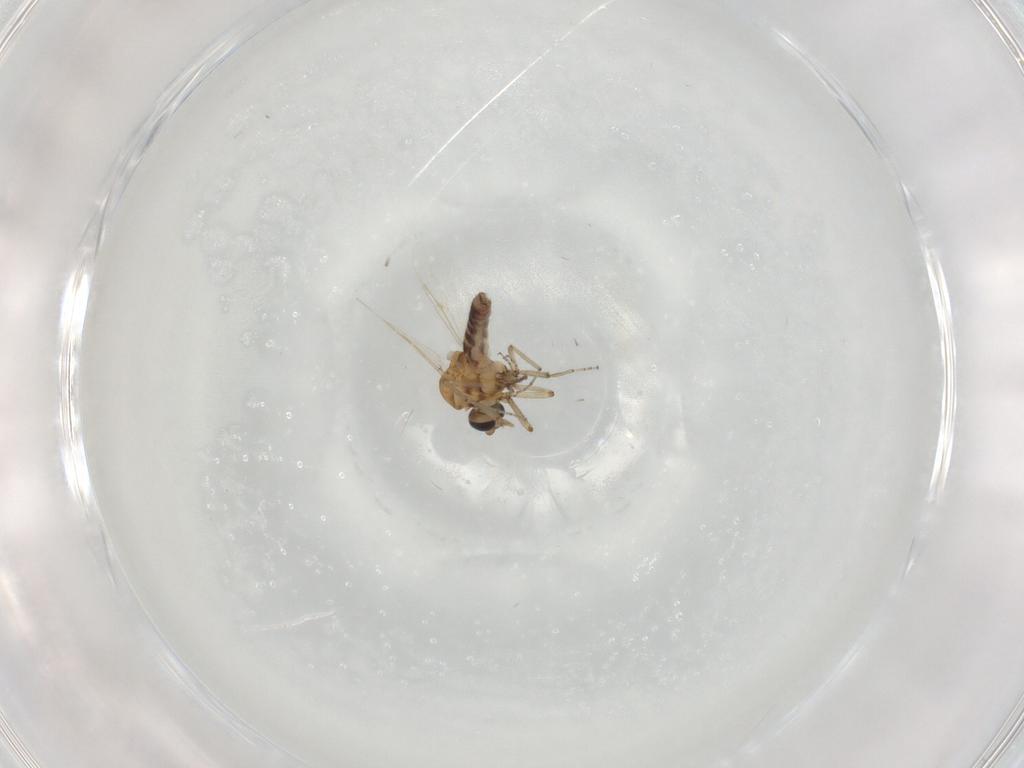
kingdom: Animalia
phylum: Arthropoda
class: Insecta
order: Diptera
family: Ceratopogonidae
